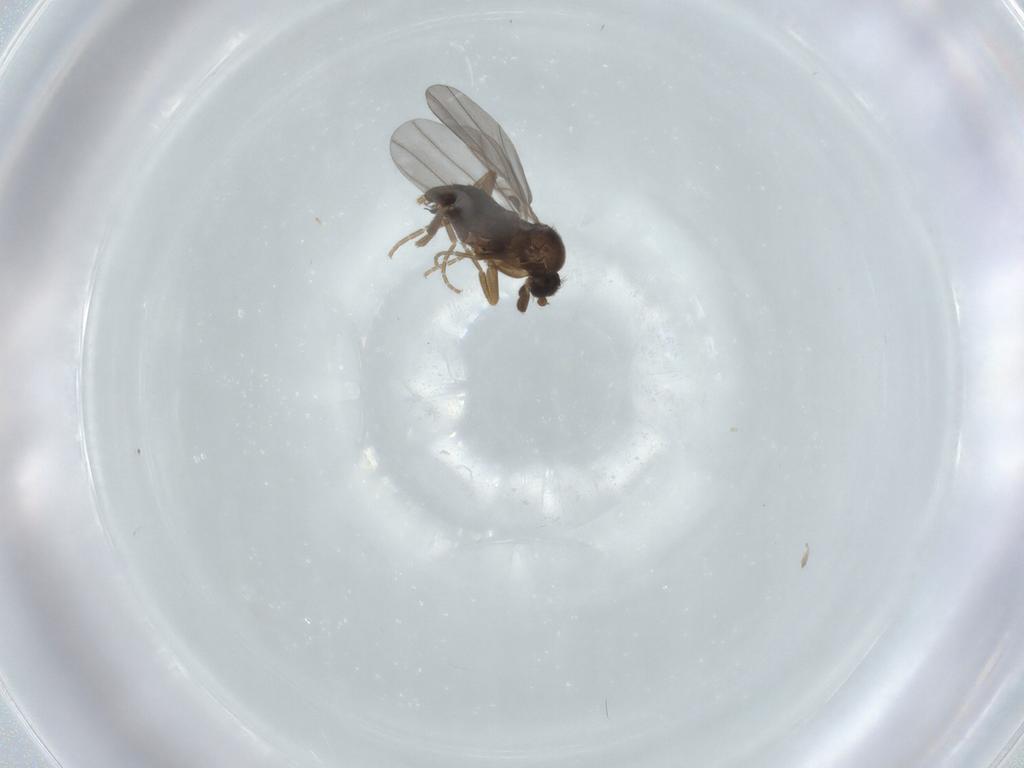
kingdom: Animalia
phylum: Arthropoda
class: Insecta
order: Diptera
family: Phoridae
